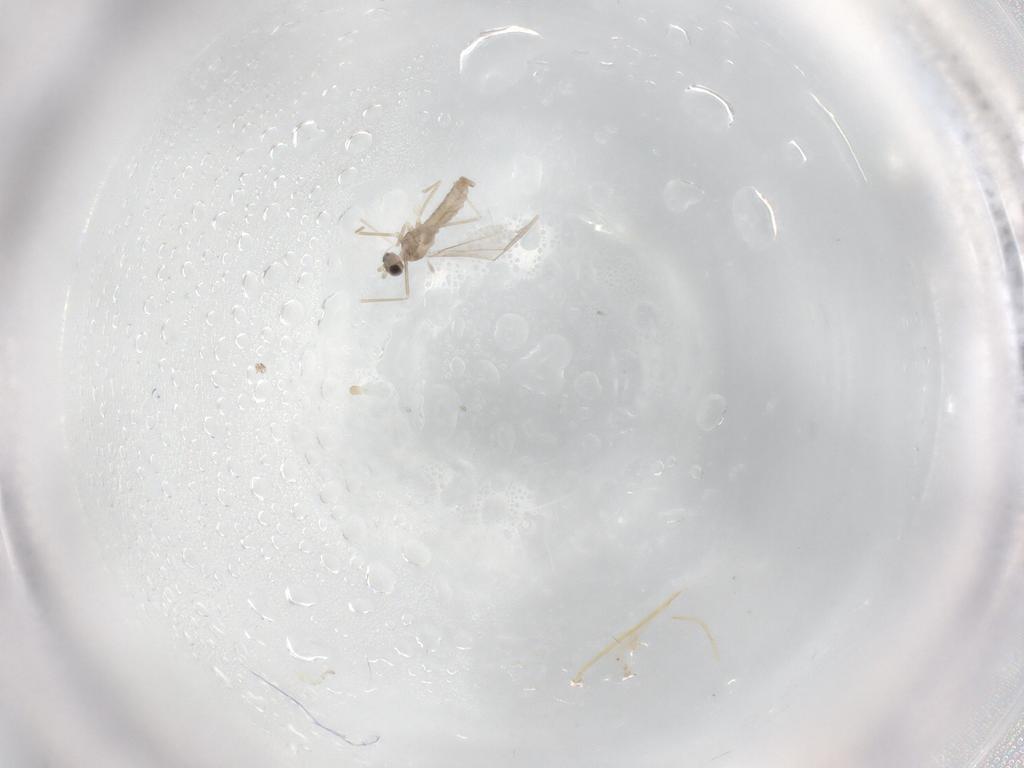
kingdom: Animalia
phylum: Arthropoda
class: Insecta
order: Diptera
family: Cecidomyiidae
